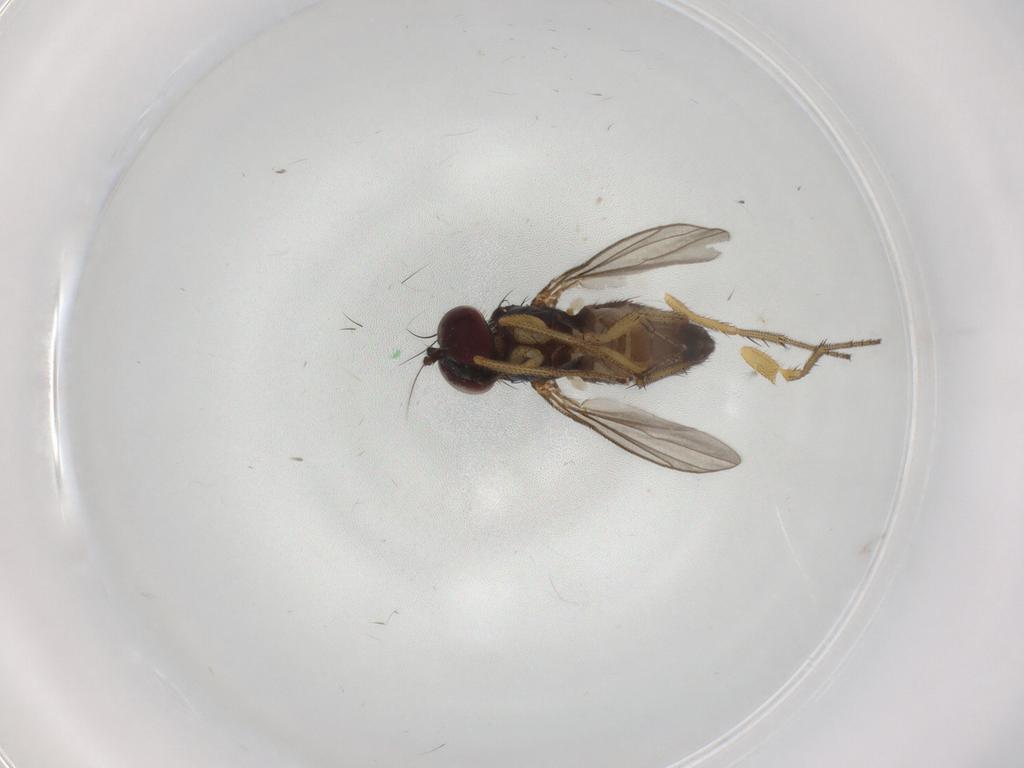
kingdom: Animalia
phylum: Arthropoda
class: Insecta
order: Diptera
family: Dolichopodidae
